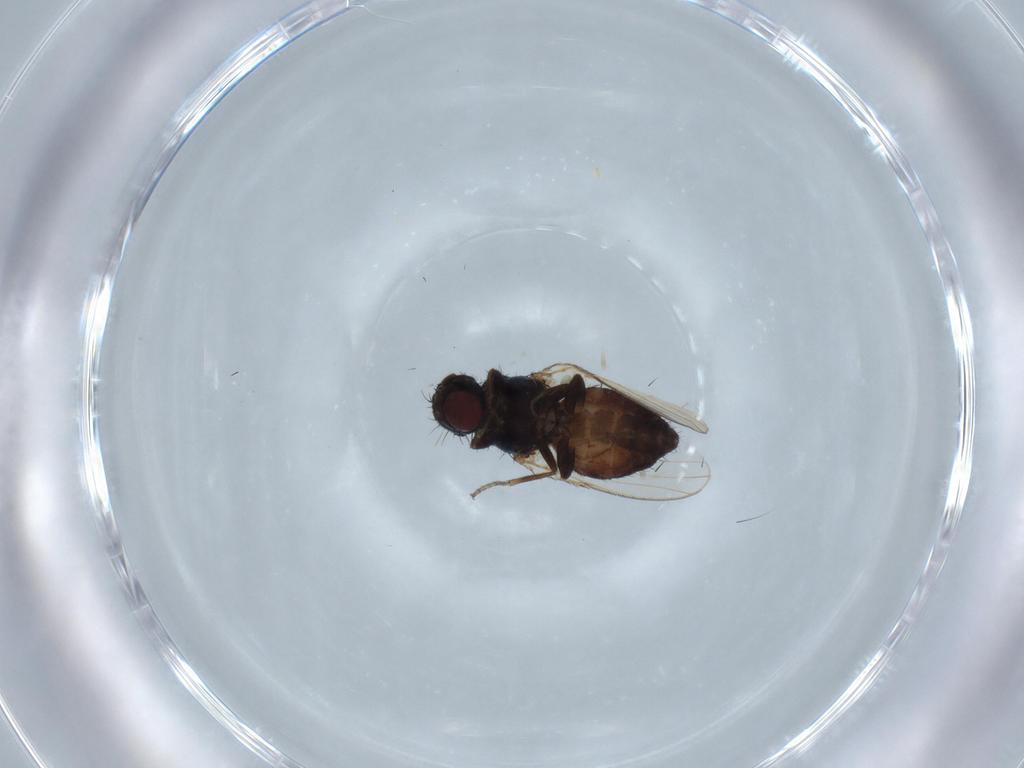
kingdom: Animalia
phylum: Arthropoda
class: Insecta
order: Diptera
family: Carnidae
